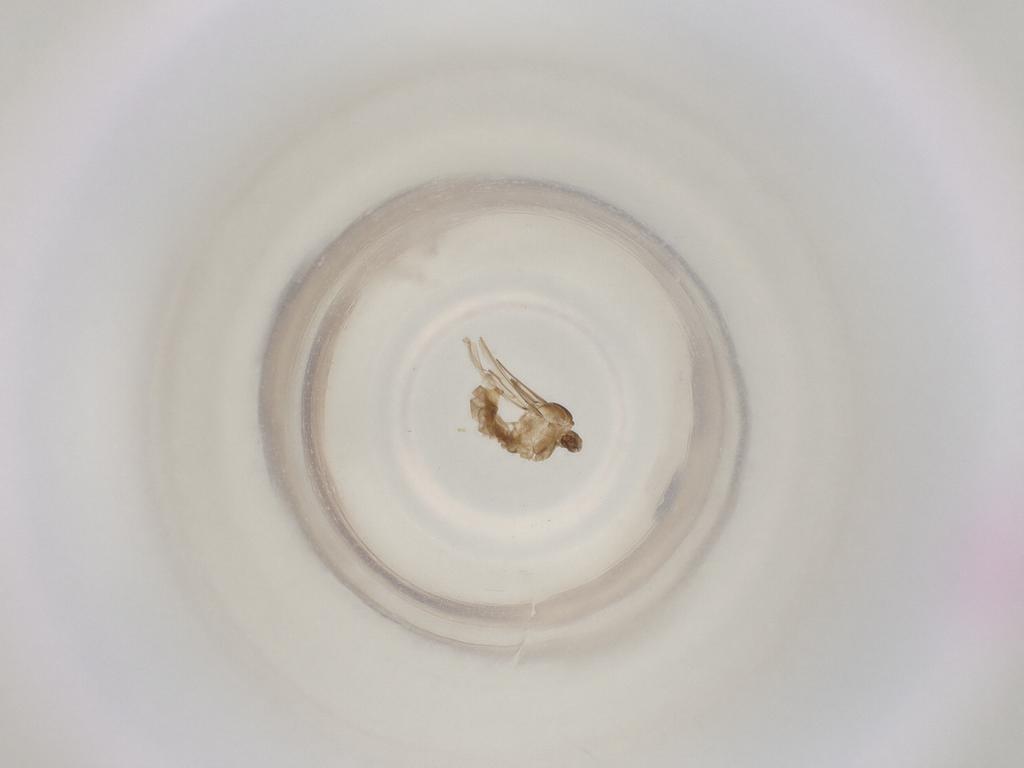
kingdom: Animalia
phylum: Arthropoda
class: Insecta
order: Diptera
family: Cecidomyiidae
